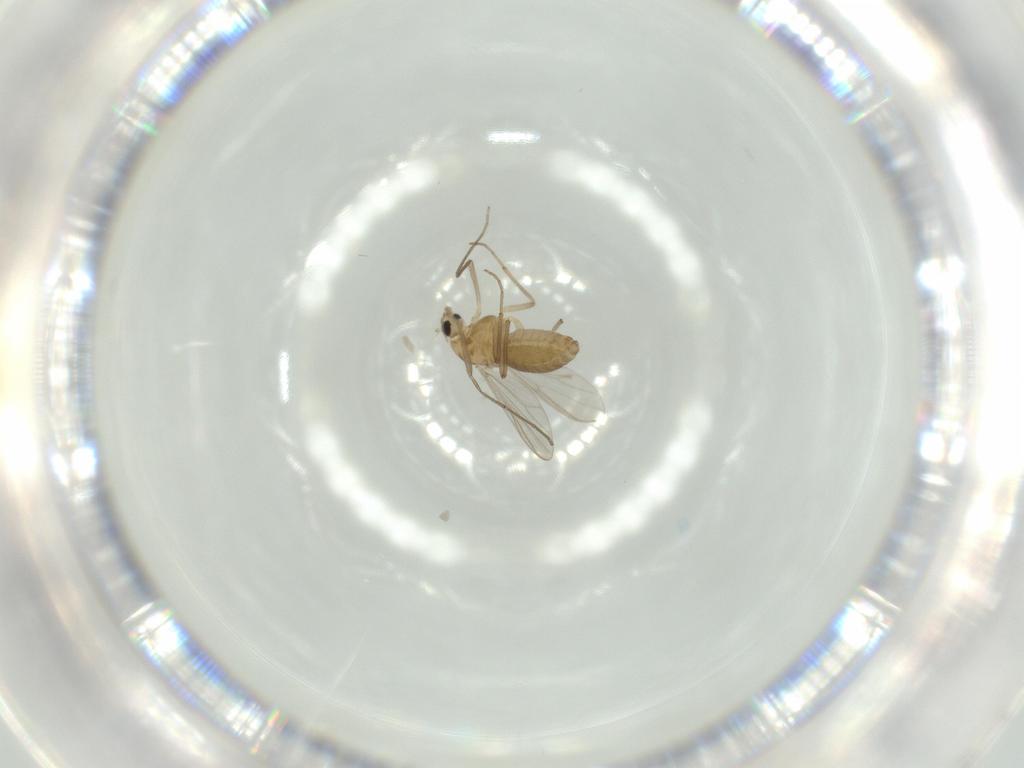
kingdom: Animalia
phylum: Arthropoda
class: Insecta
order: Diptera
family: Chironomidae
